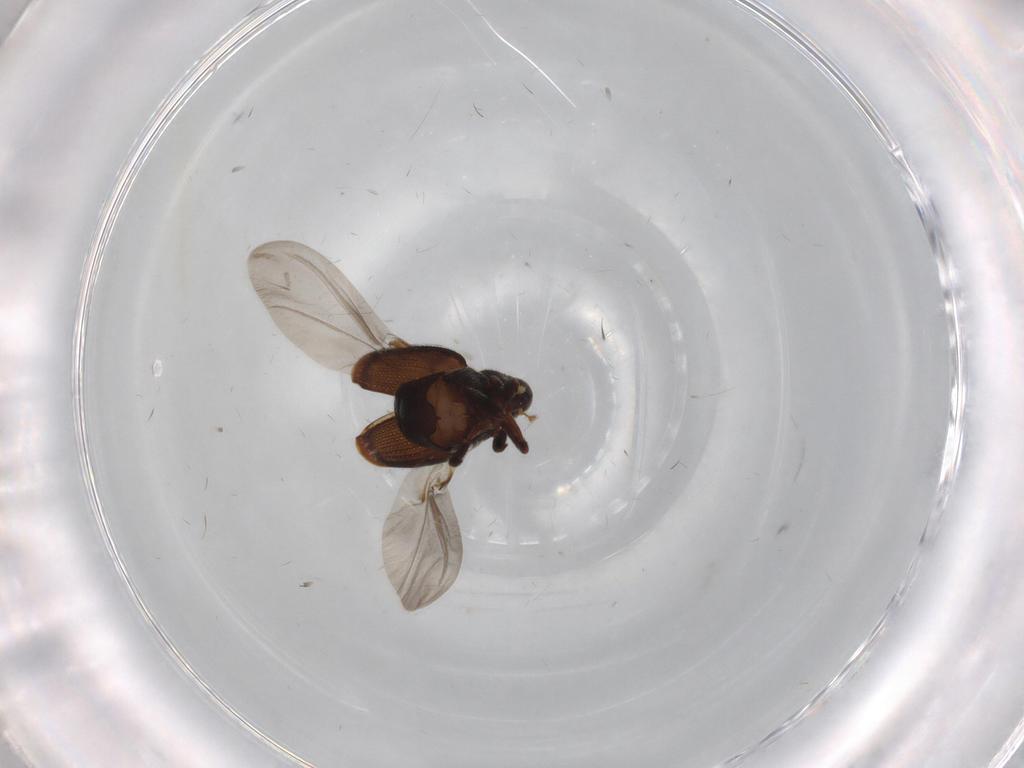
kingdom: Animalia
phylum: Arthropoda
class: Insecta
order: Coleoptera
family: Curculionidae
